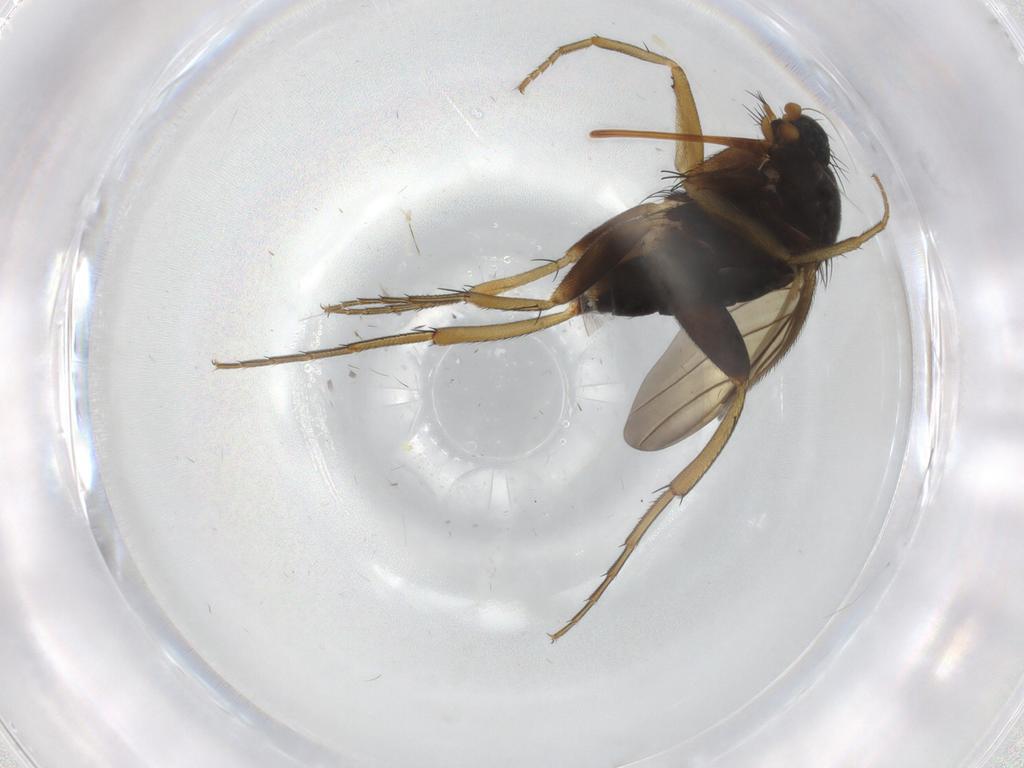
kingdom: Animalia
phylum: Arthropoda
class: Insecta
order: Diptera
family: Phoridae
